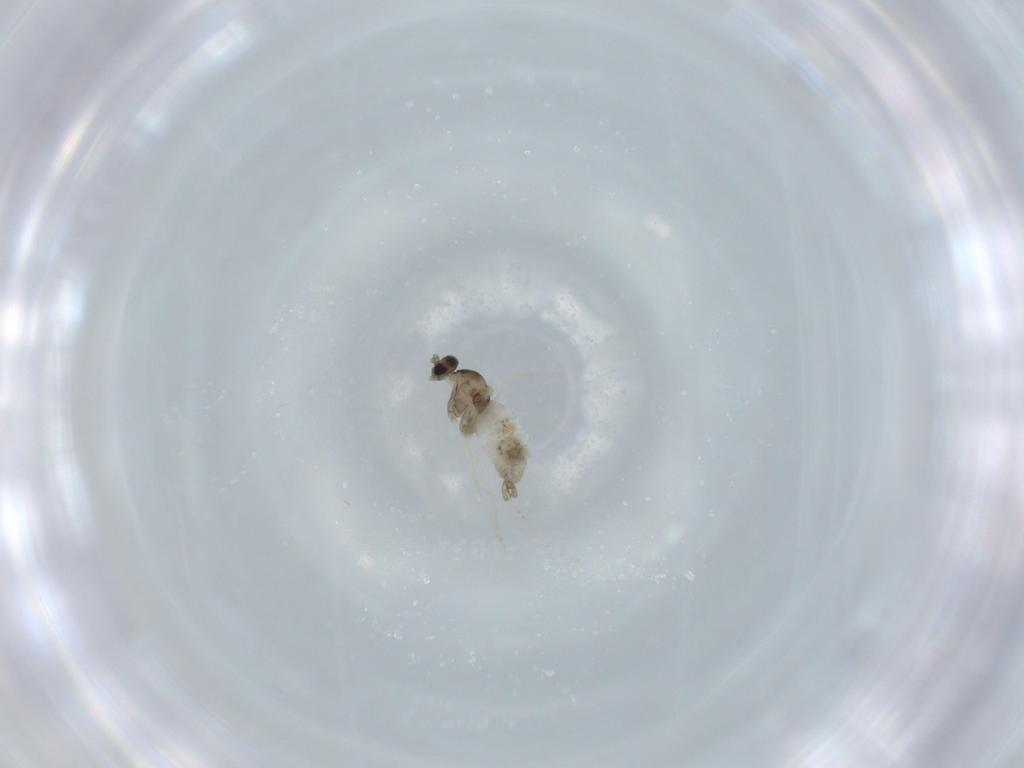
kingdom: Animalia
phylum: Arthropoda
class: Insecta
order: Diptera
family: Cecidomyiidae
